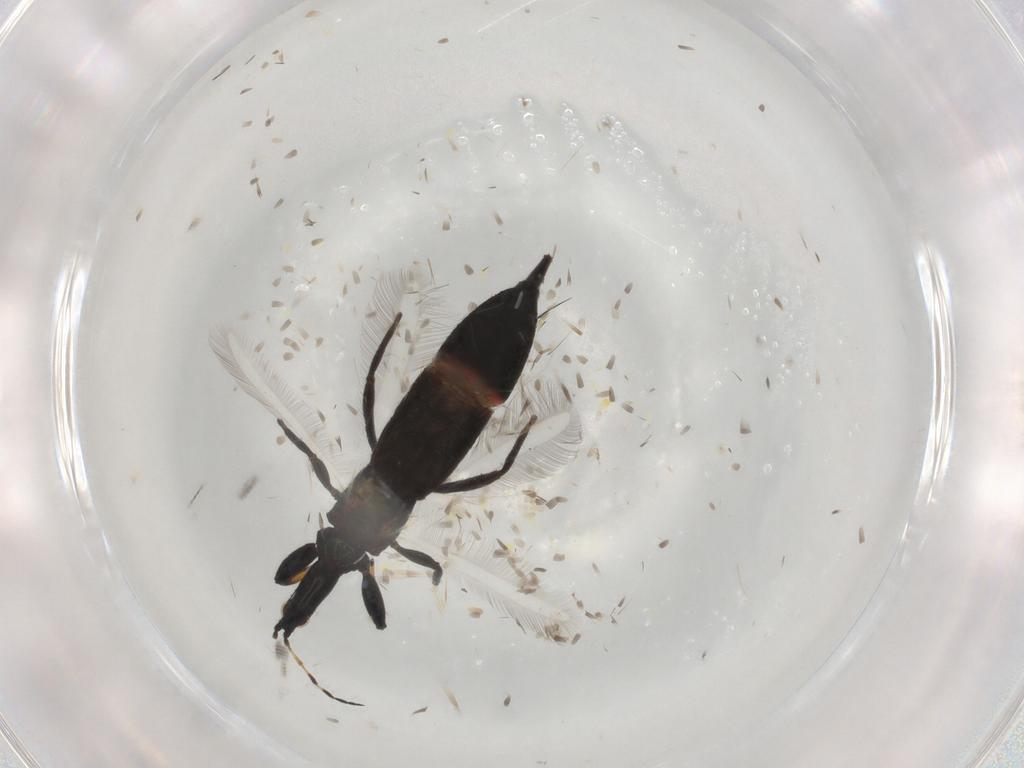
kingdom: Animalia
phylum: Arthropoda
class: Insecta
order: Thysanoptera
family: Phlaeothripidae
